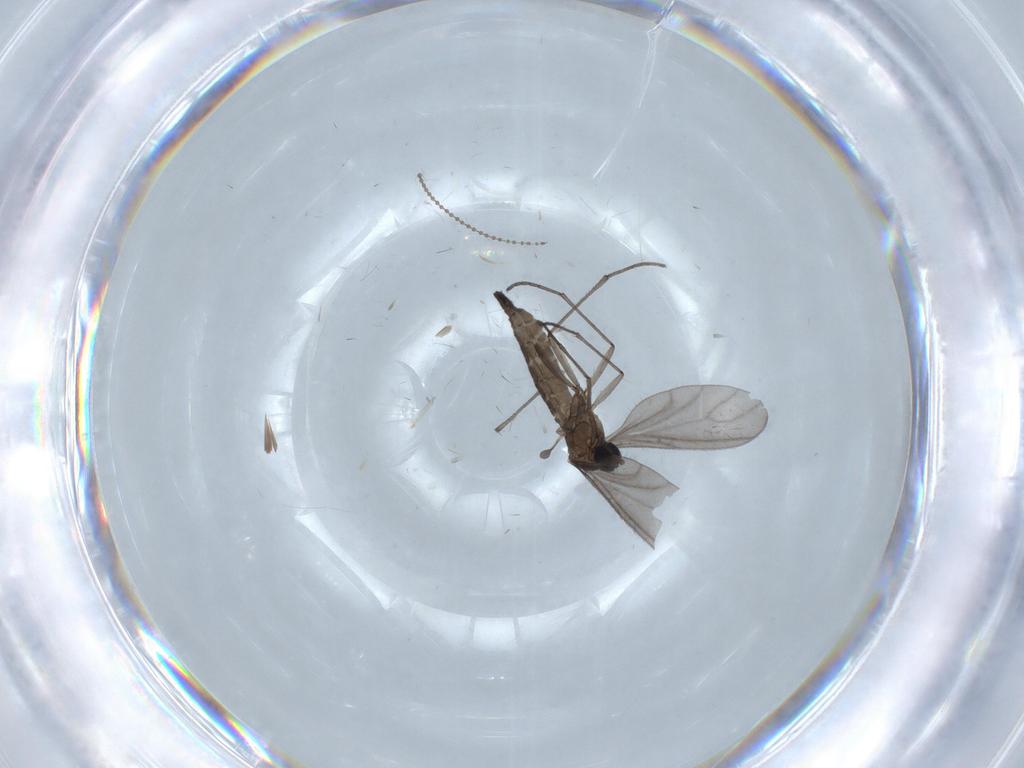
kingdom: Animalia
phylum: Arthropoda
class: Insecta
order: Diptera
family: Sciaridae
